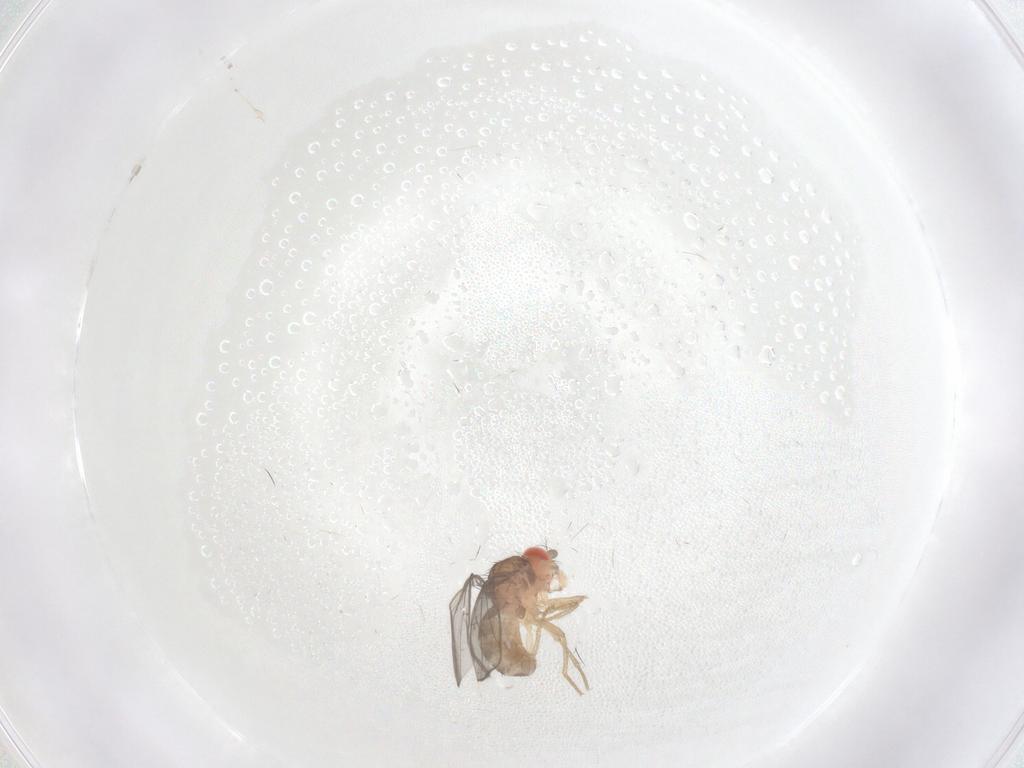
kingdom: Animalia
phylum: Arthropoda
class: Insecta
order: Diptera
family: Drosophilidae
